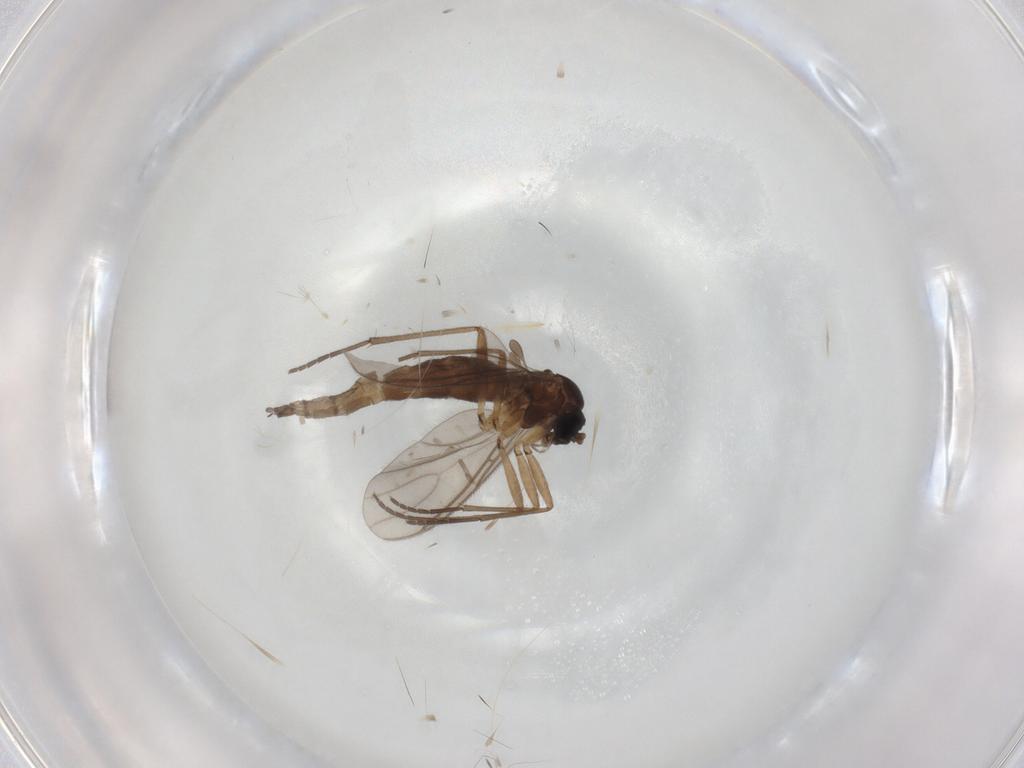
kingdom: Animalia
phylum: Arthropoda
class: Insecta
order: Diptera
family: Sciaridae
